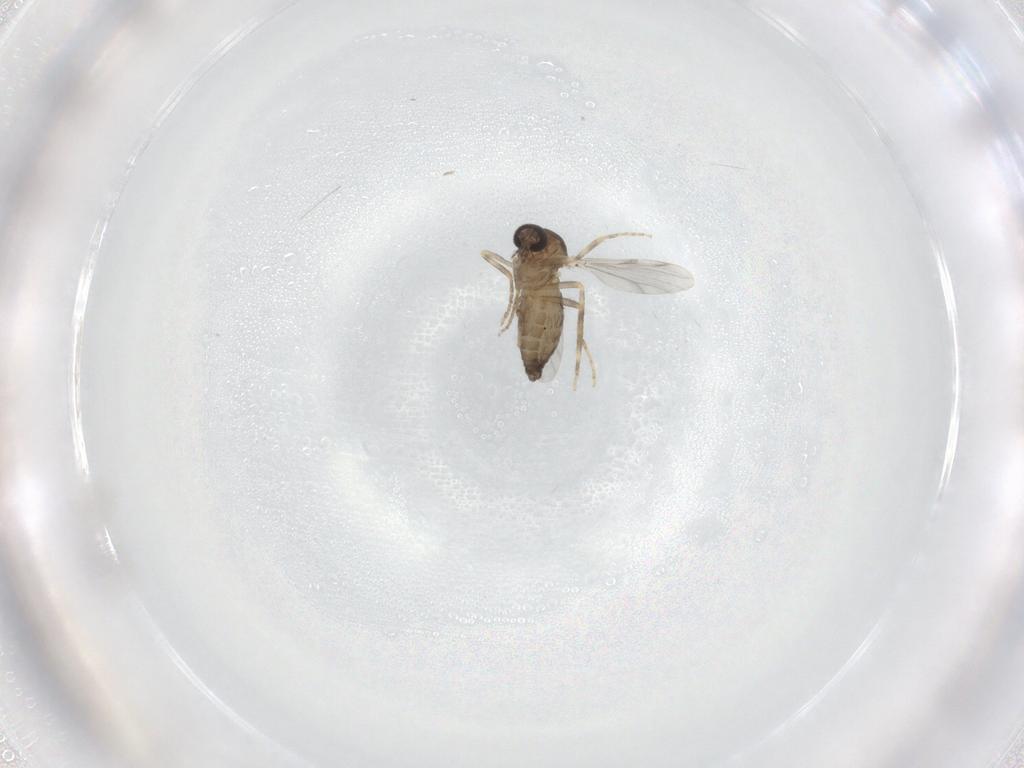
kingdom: Animalia
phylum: Arthropoda
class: Insecta
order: Diptera
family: Ceratopogonidae
